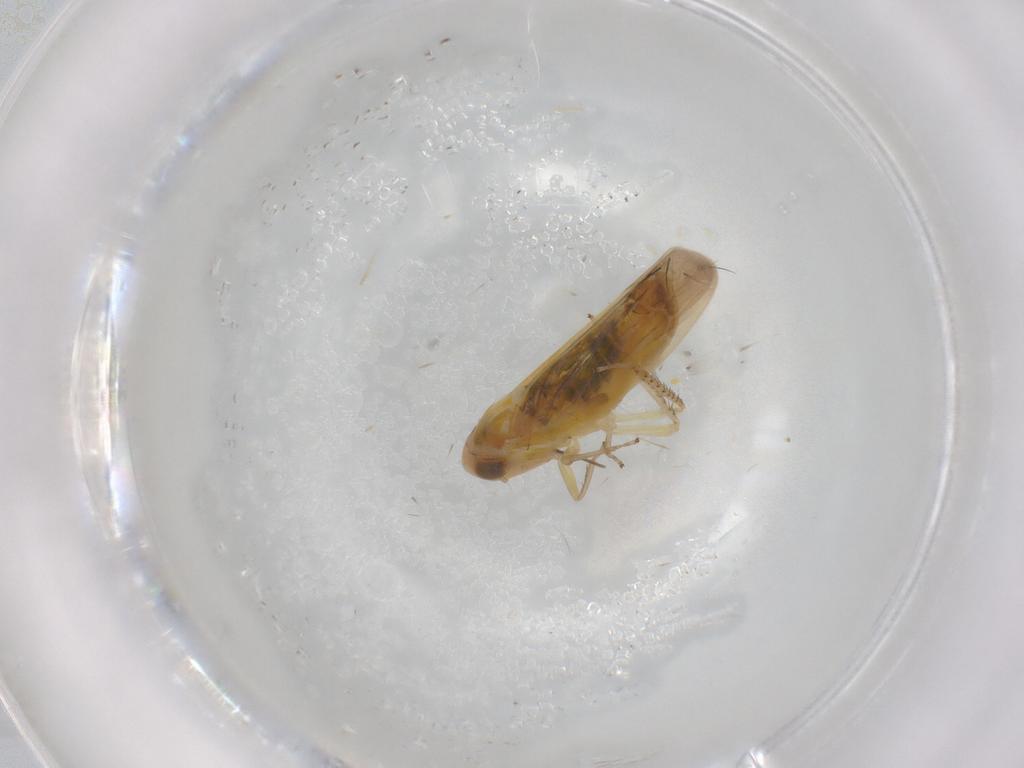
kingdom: Animalia
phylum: Arthropoda
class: Insecta
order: Hemiptera
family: Cicadellidae
